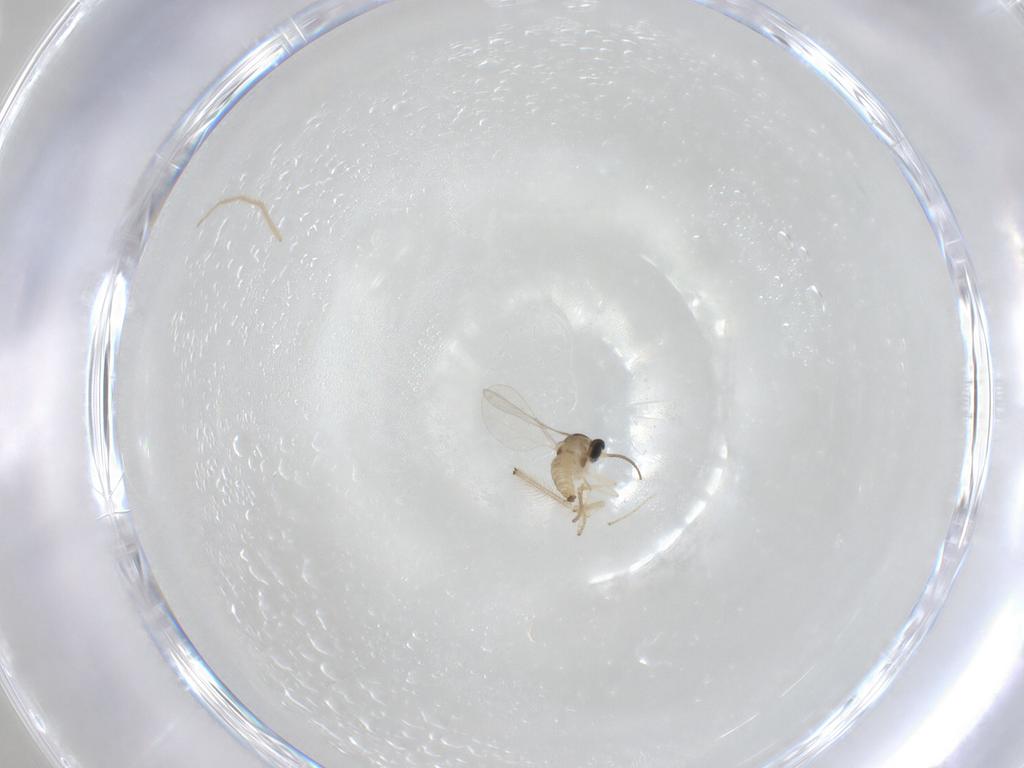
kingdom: Animalia
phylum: Arthropoda
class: Insecta
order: Diptera
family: Cecidomyiidae
